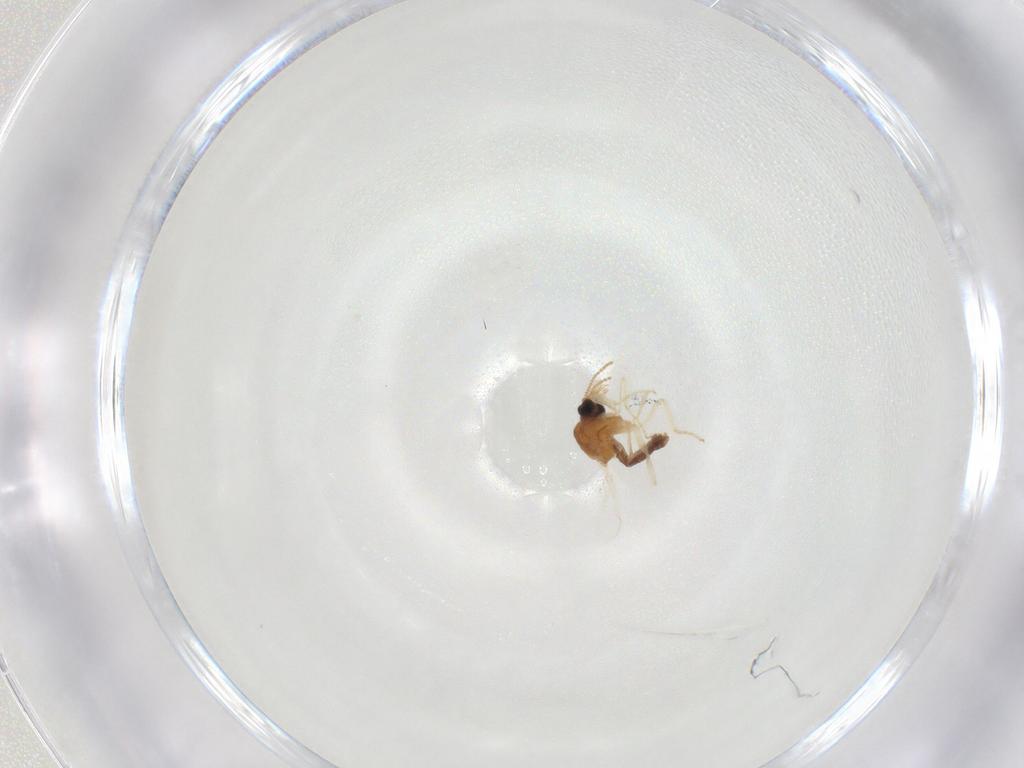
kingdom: Animalia
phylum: Arthropoda
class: Insecta
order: Diptera
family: Ceratopogonidae
